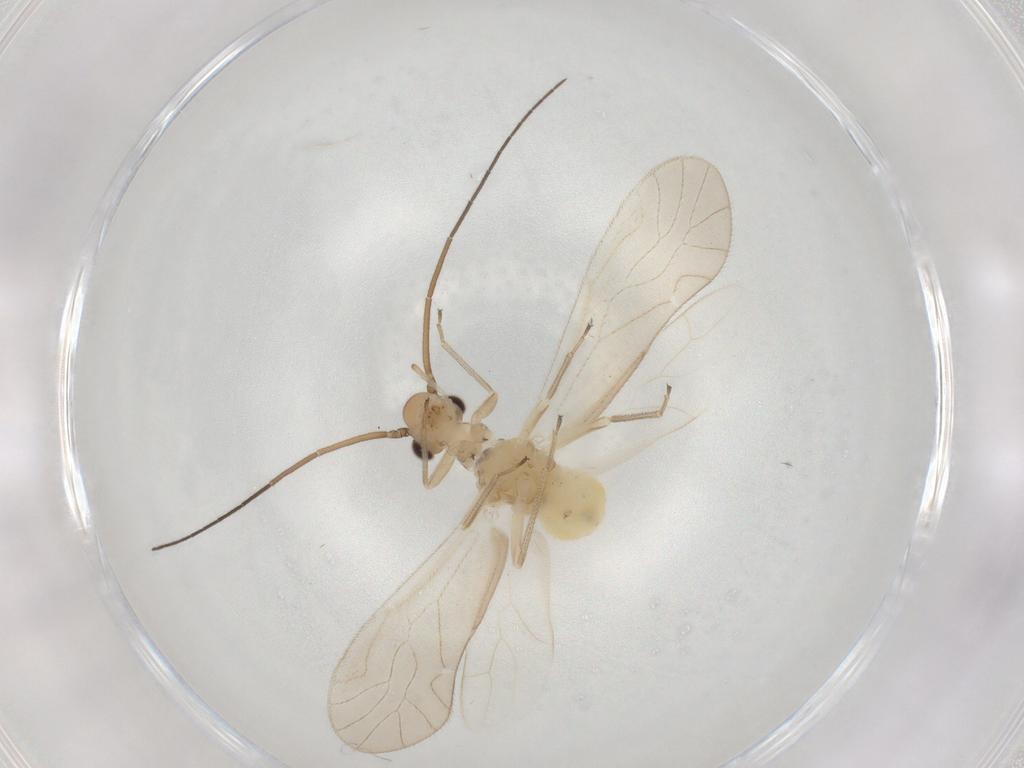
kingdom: Animalia
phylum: Arthropoda
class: Insecta
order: Psocodea
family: Caeciliusidae
